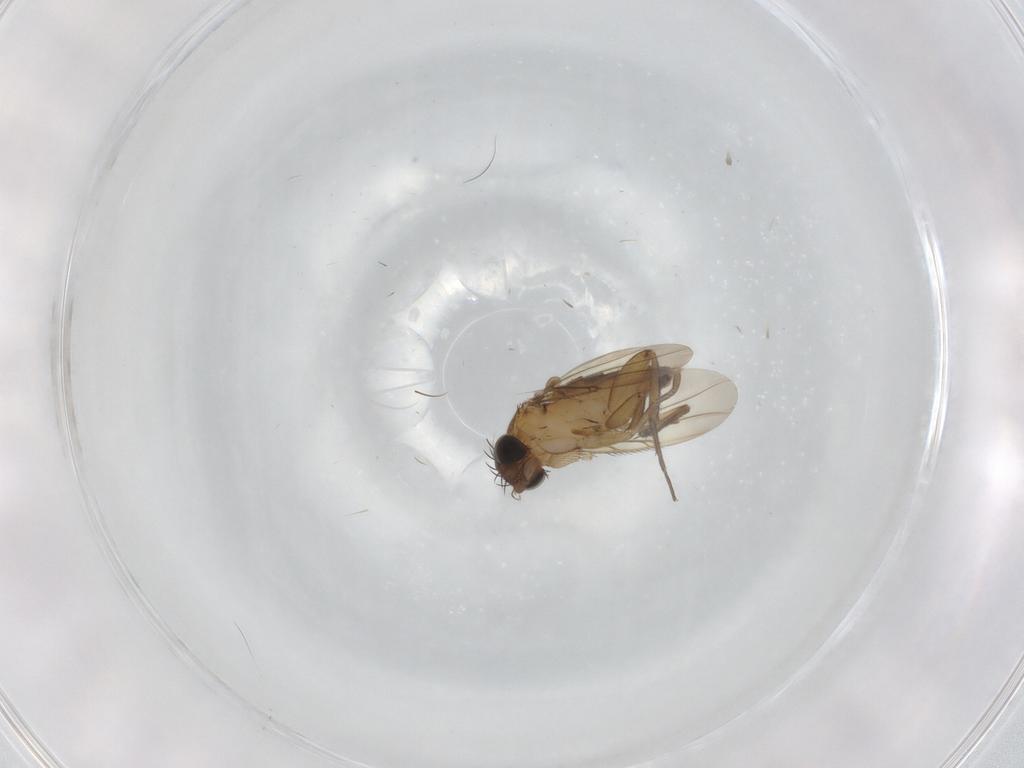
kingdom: Animalia
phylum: Arthropoda
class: Insecta
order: Diptera
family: Phoridae
